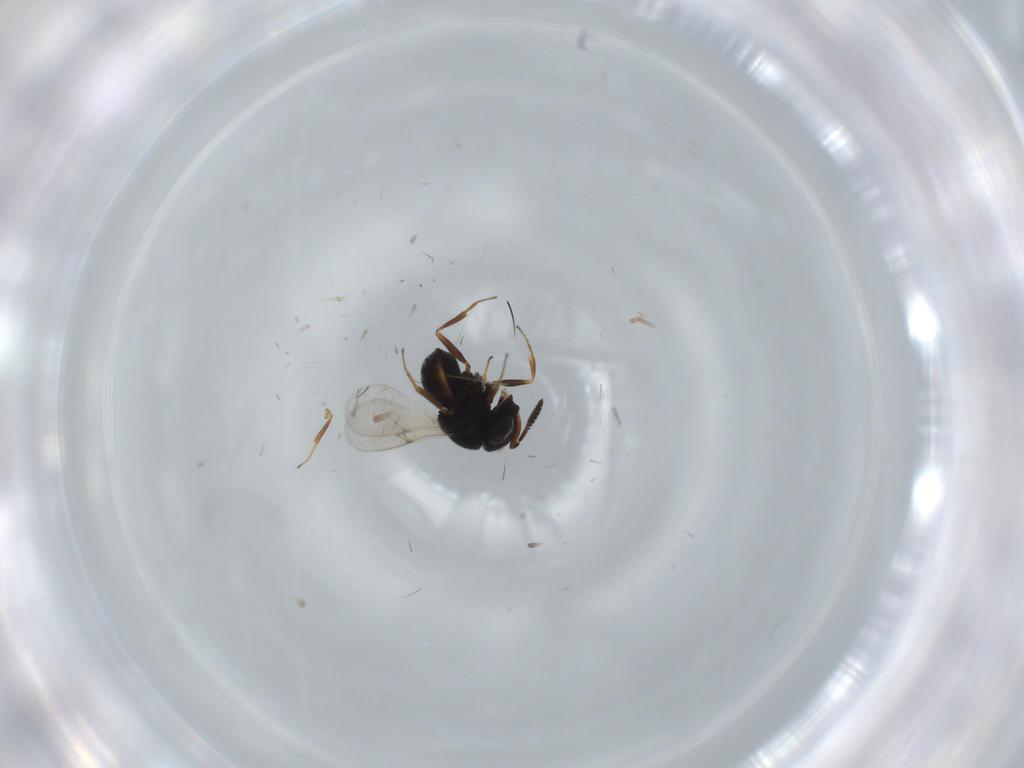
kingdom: Animalia
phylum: Arthropoda
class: Insecta
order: Hymenoptera
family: Scelionidae
